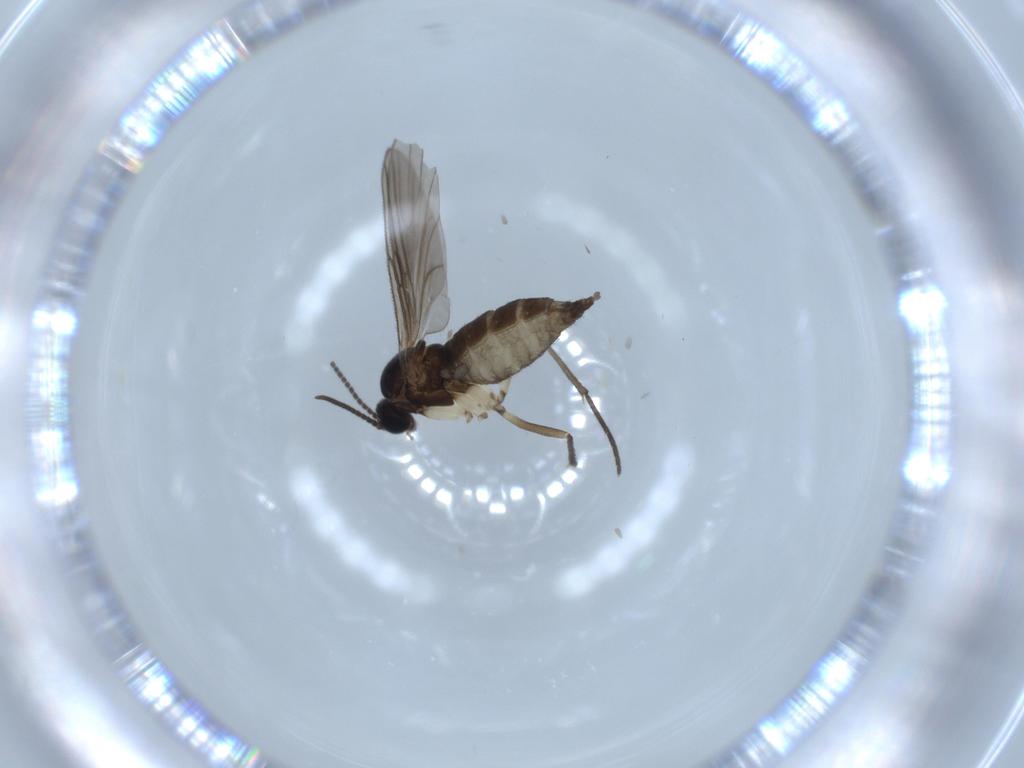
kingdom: Animalia
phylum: Arthropoda
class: Insecta
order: Diptera
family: Sciaridae
